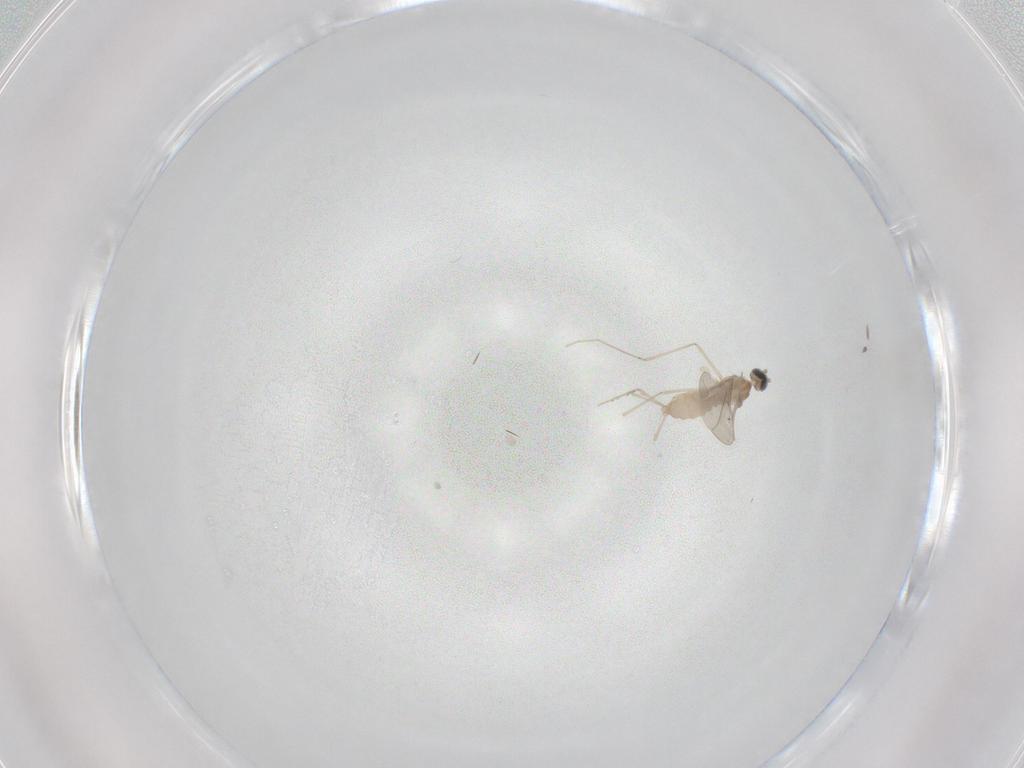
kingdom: Animalia
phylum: Arthropoda
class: Insecta
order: Diptera
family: Cecidomyiidae
